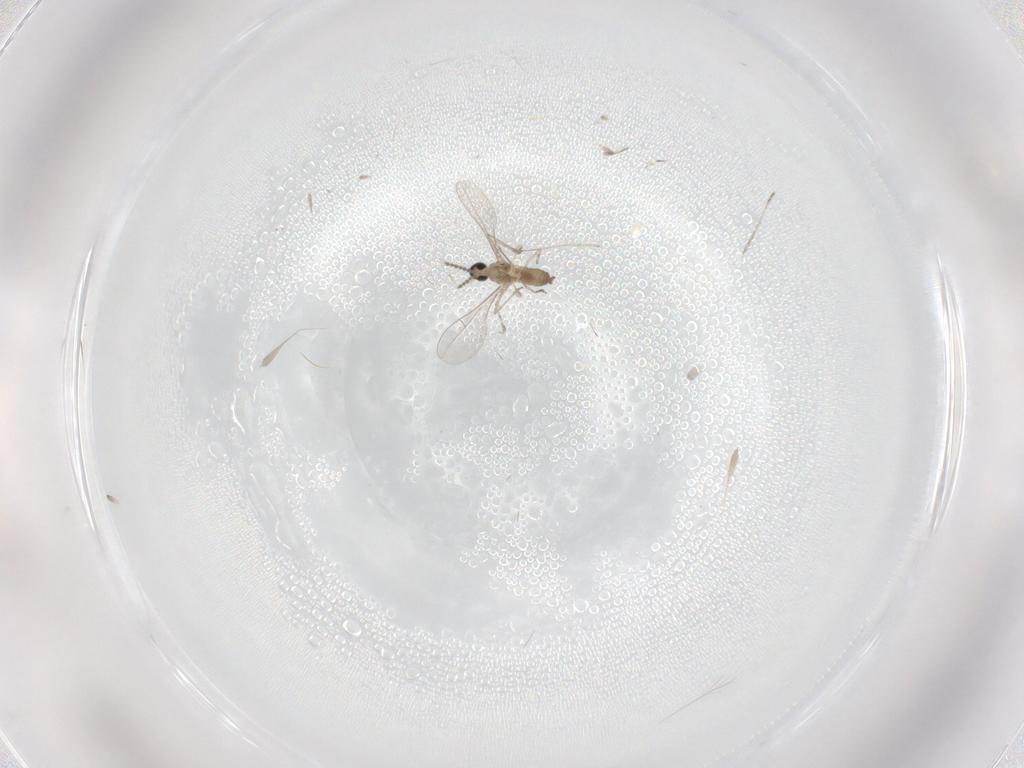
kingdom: Animalia
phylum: Arthropoda
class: Insecta
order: Diptera
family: Cecidomyiidae
